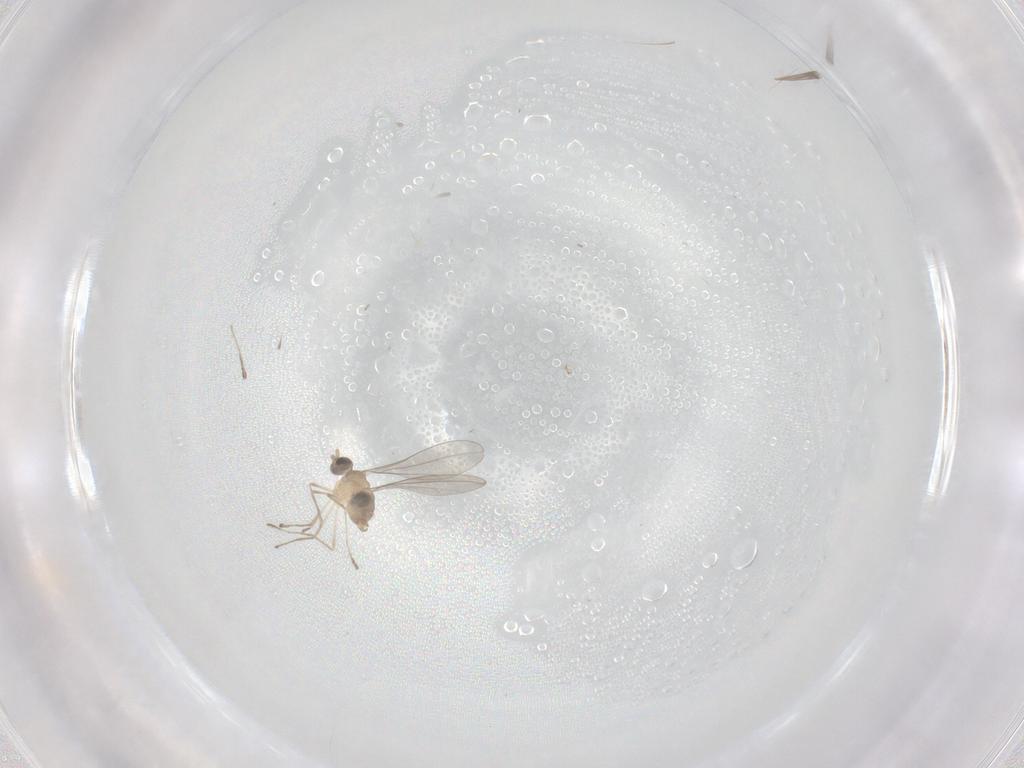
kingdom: Animalia
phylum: Arthropoda
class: Insecta
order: Diptera
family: Cecidomyiidae
